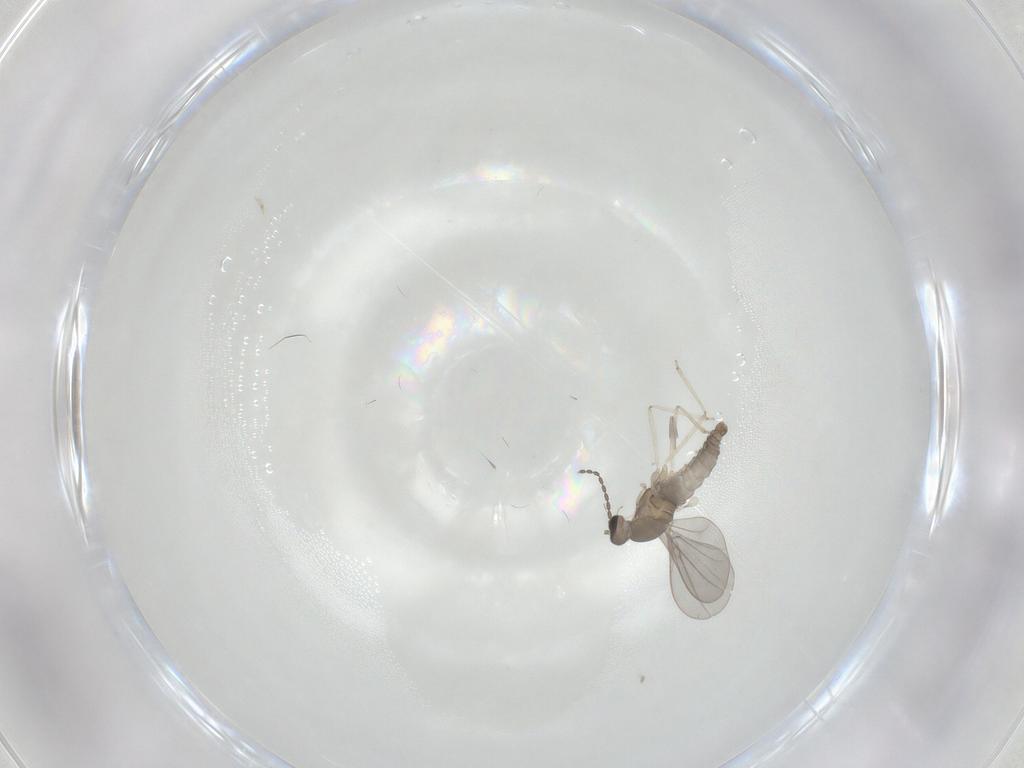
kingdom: Animalia
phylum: Arthropoda
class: Insecta
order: Diptera
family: Cecidomyiidae
